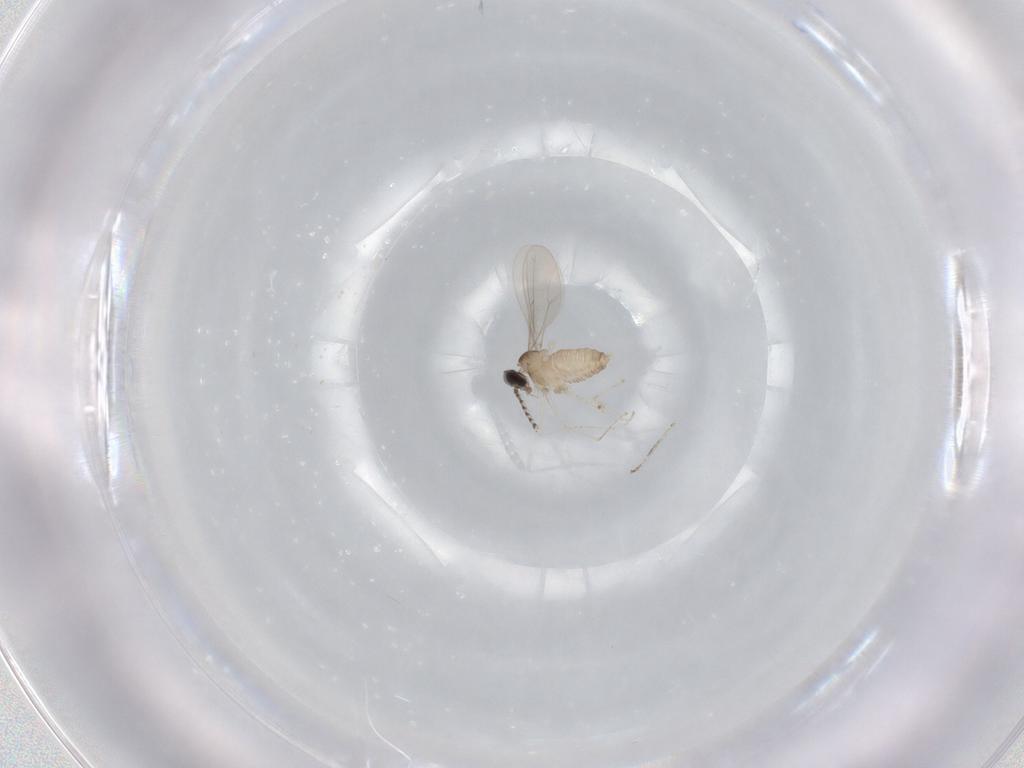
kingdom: Animalia
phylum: Arthropoda
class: Insecta
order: Diptera
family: Cecidomyiidae
